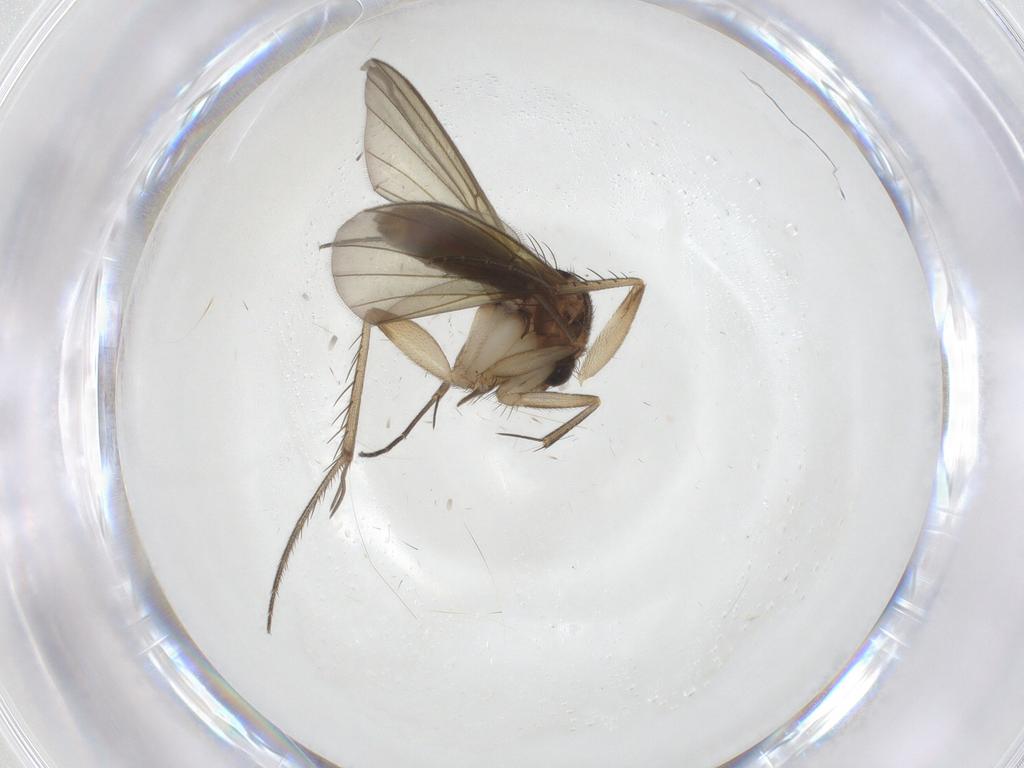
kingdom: Animalia
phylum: Arthropoda
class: Insecta
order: Diptera
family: Mycetophilidae
